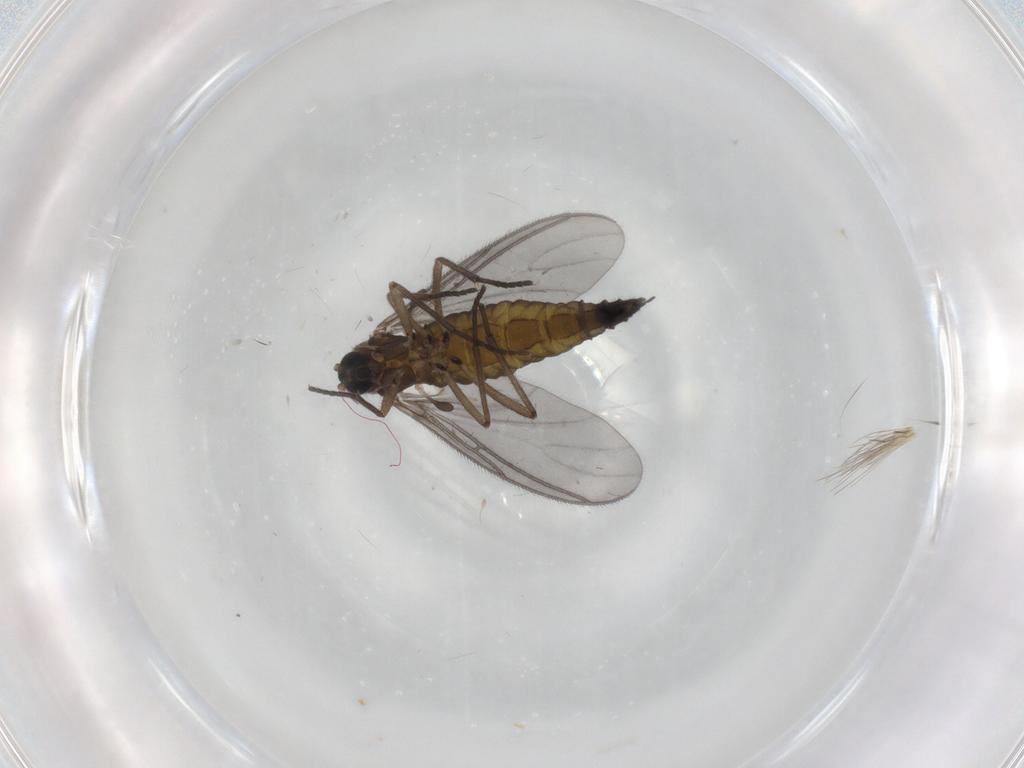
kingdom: Animalia
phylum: Arthropoda
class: Insecta
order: Diptera
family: Sciaridae
